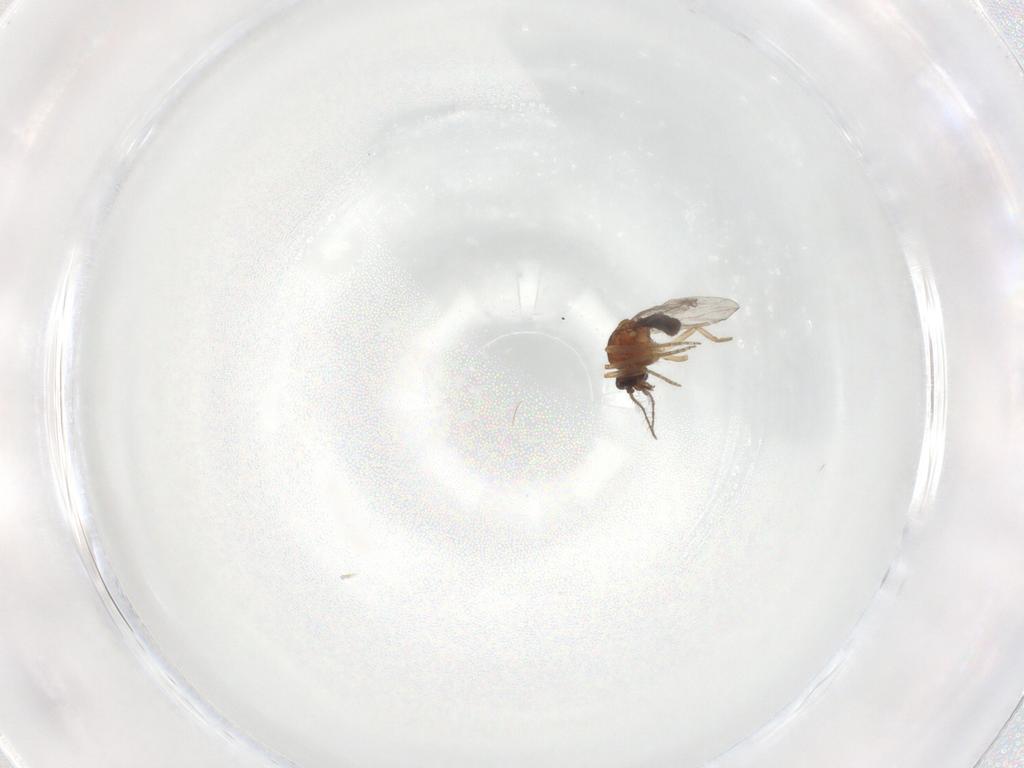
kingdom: Animalia
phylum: Arthropoda
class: Insecta
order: Diptera
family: Ceratopogonidae
